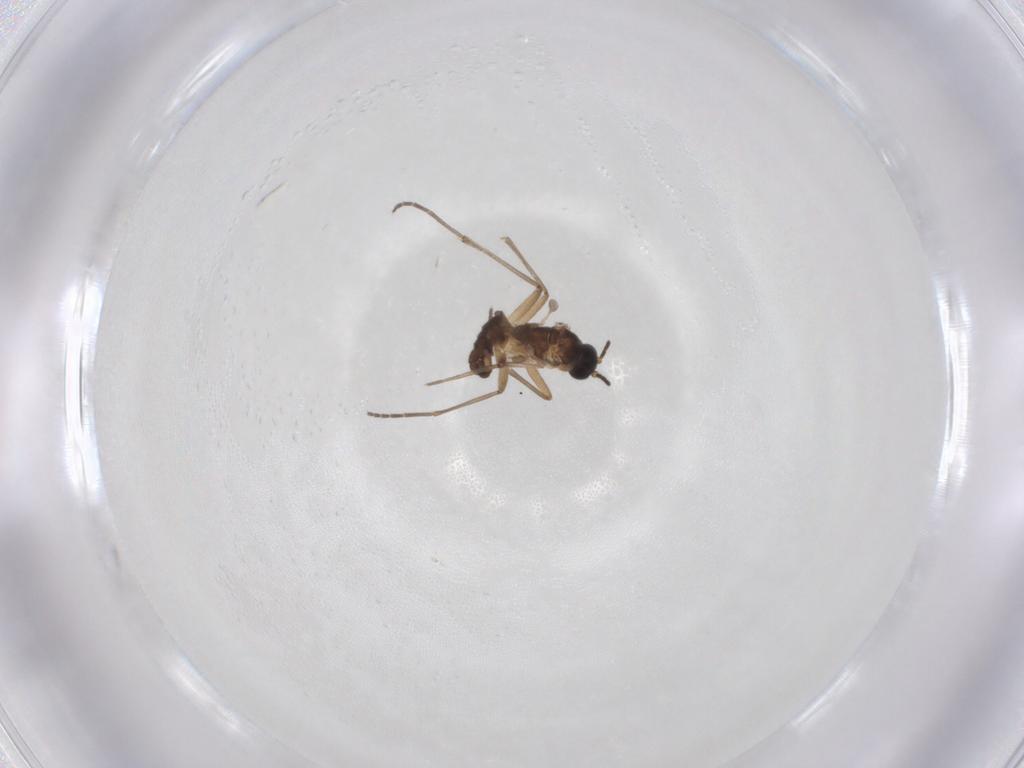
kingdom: Animalia
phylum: Arthropoda
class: Insecta
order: Diptera
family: Sciaridae
